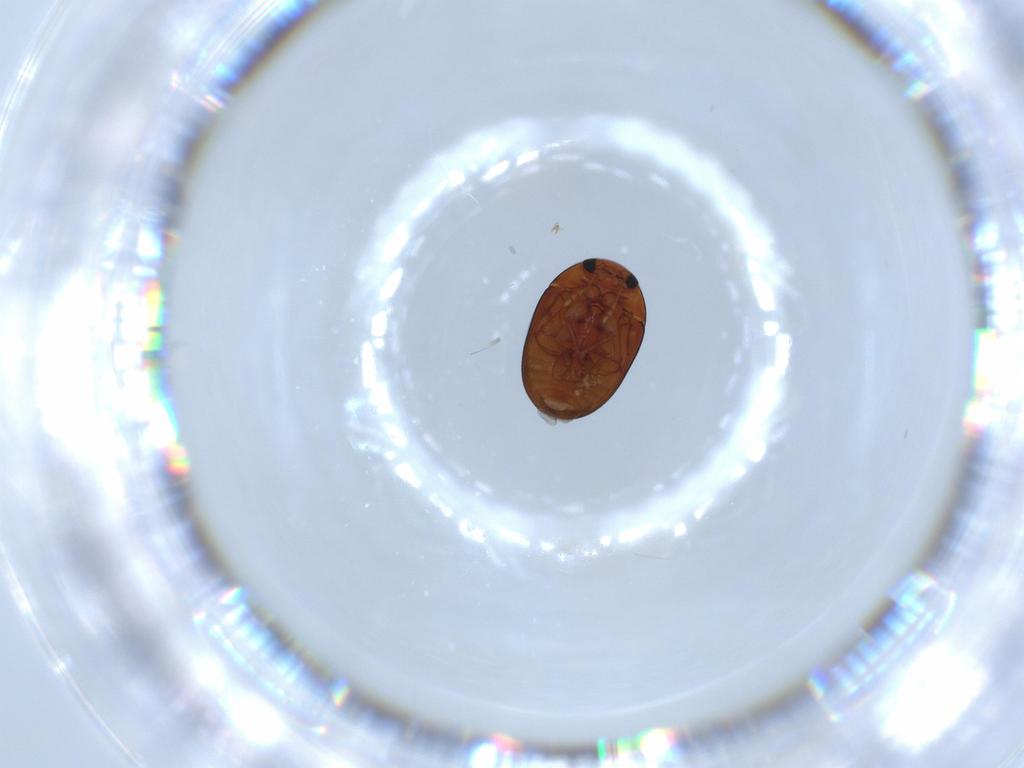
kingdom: Animalia
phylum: Arthropoda
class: Insecta
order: Coleoptera
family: Phalacridae
